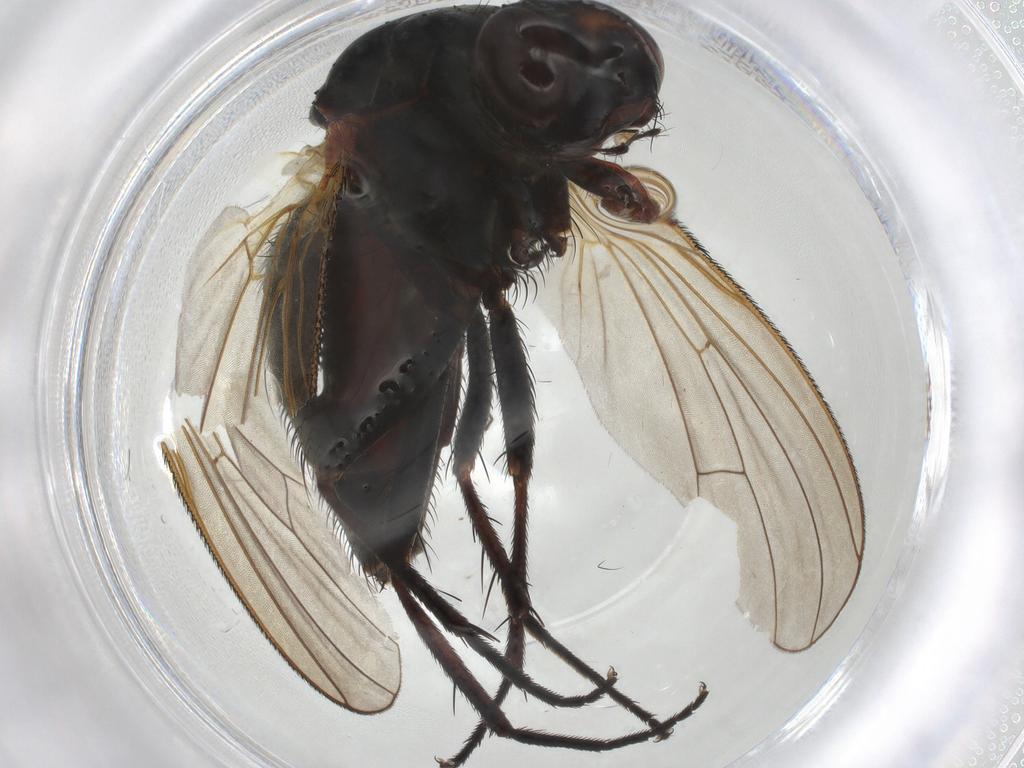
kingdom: Animalia
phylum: Arthropoda
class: Insecta
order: Diptera
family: Anthomyiidae
